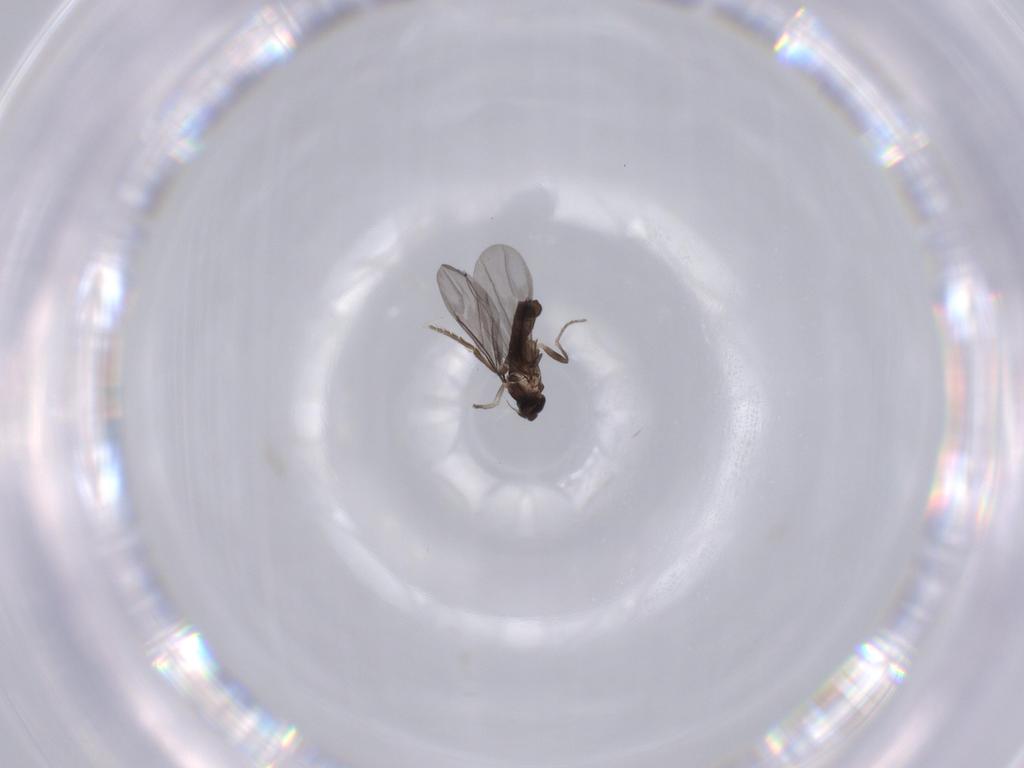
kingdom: Animalia
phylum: Arthropoda
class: Insecta
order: Diptera
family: Phoridae
